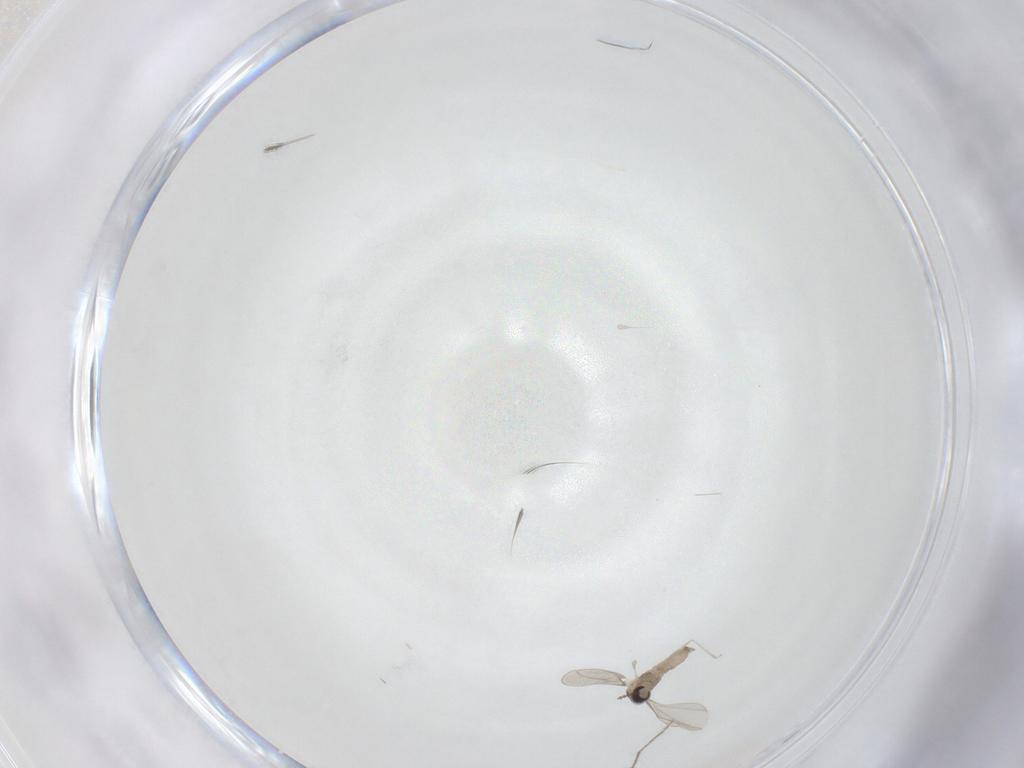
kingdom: Animalia
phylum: Arthropoda
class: Insecta
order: Diptera
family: Chironomidae
